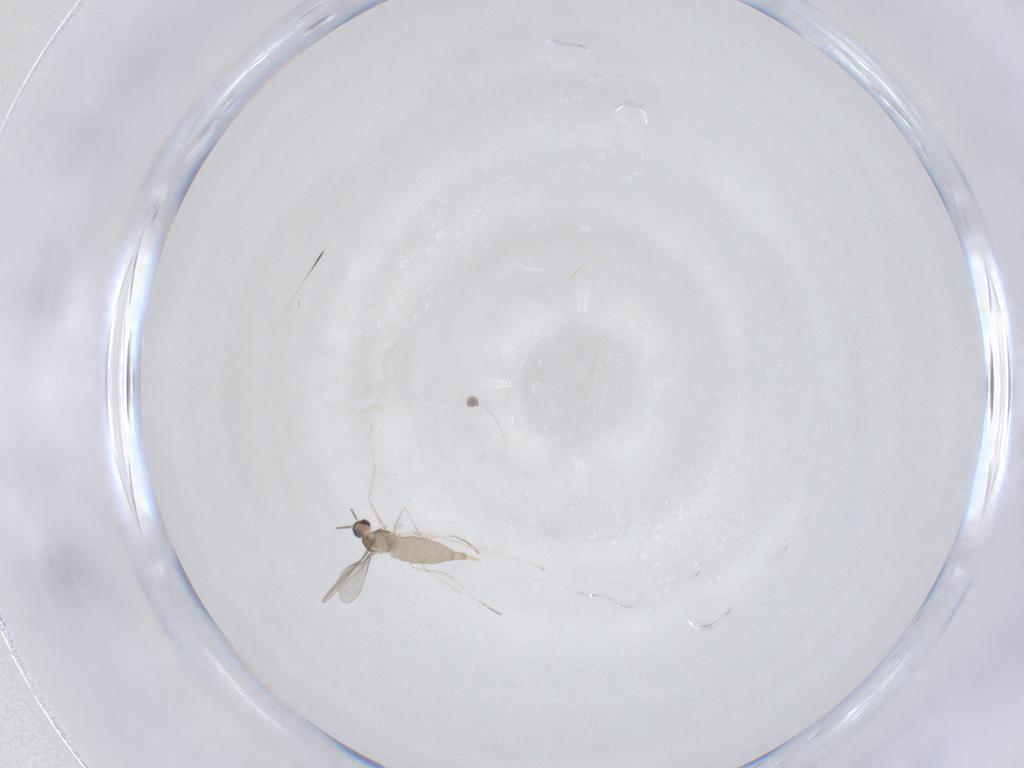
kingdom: Animalia
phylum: Arthropoda
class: Insecta
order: Diptera
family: Cecidomyiidae
